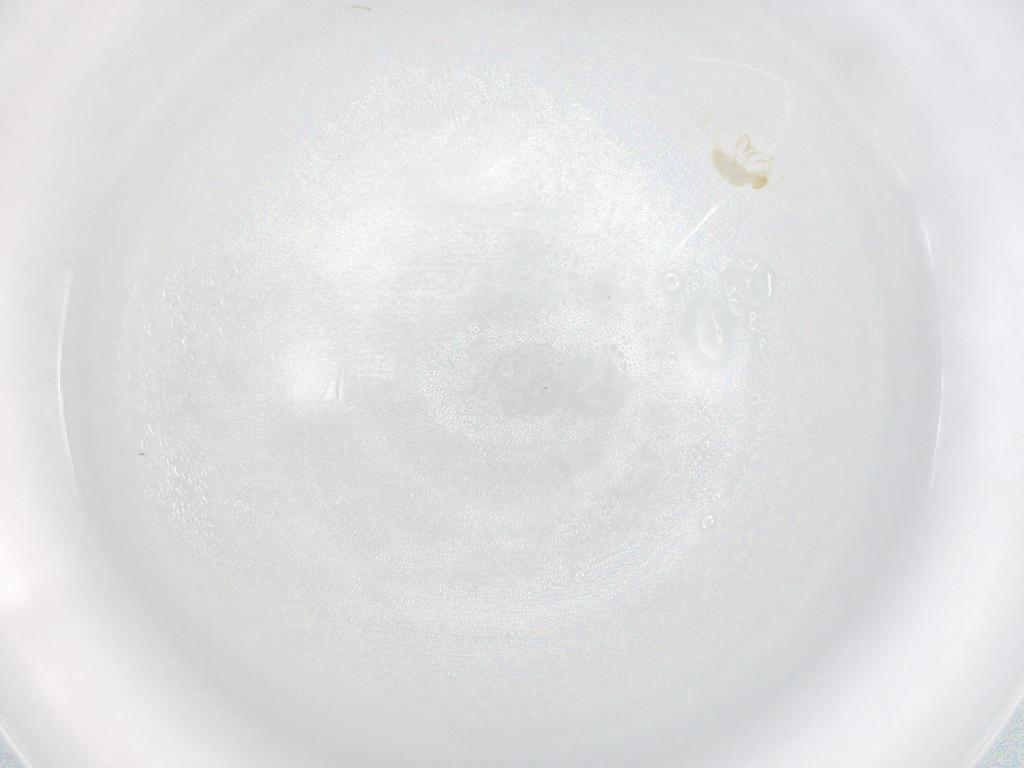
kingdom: Animalia
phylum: Arthropoda
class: Arachnida
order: Trombidiformes
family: Erythraeidae
